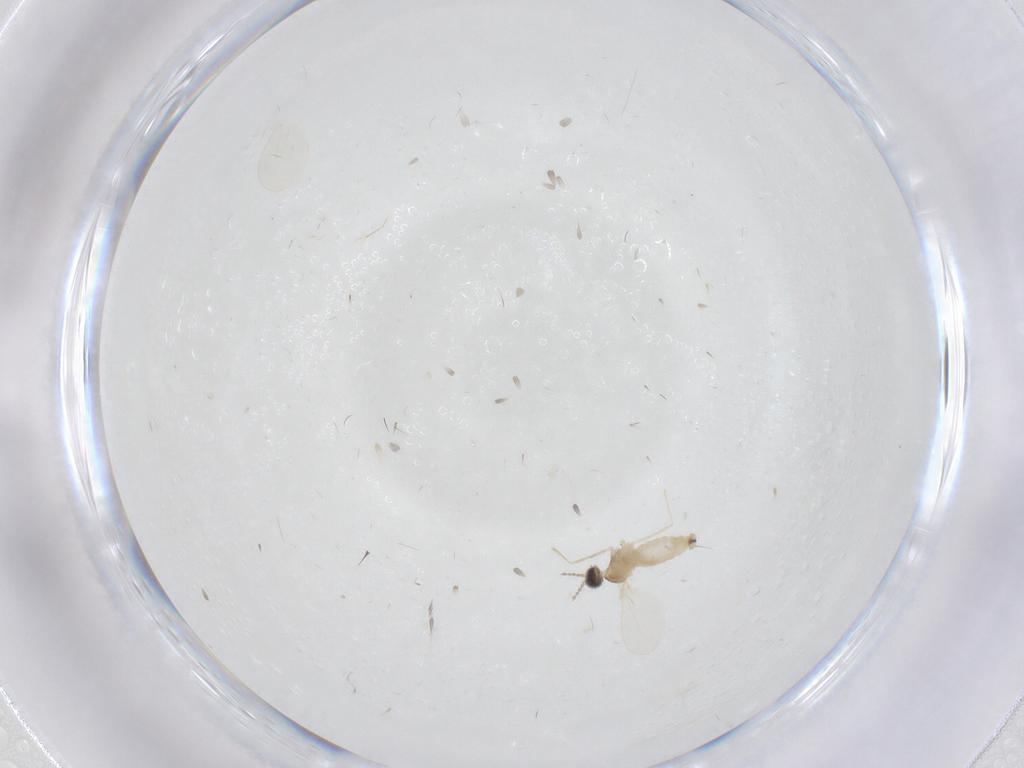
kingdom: Animalia
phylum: Arthropoda
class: Insecta
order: Diptera
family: Cecidomyiidae
